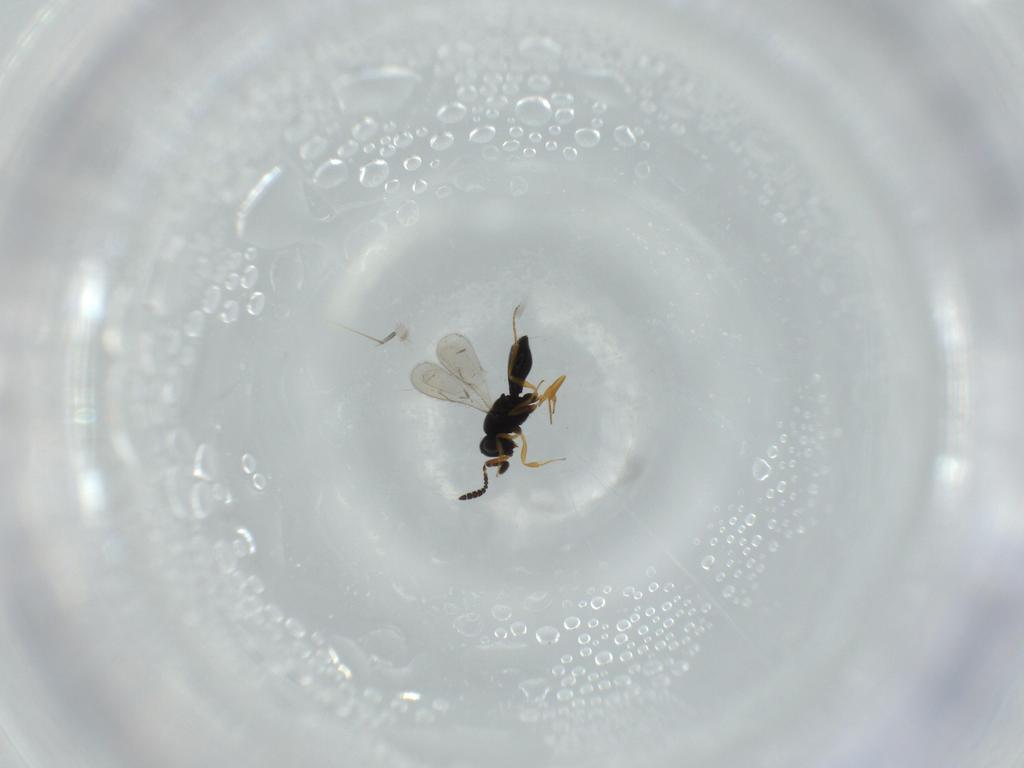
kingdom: Animalia
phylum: Arthropoda
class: Insecta
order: Hymenoptera
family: Scelionidae
